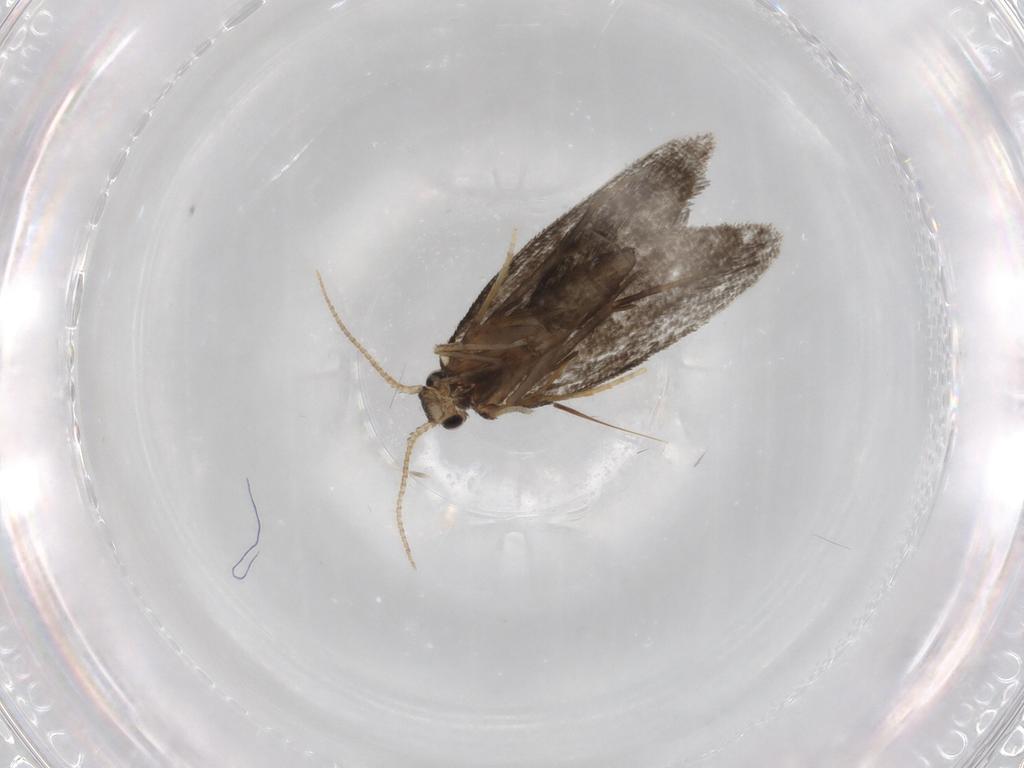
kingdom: Animalia
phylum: Arthropoda
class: Insecta
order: Lepidoptera
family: Psychidae
